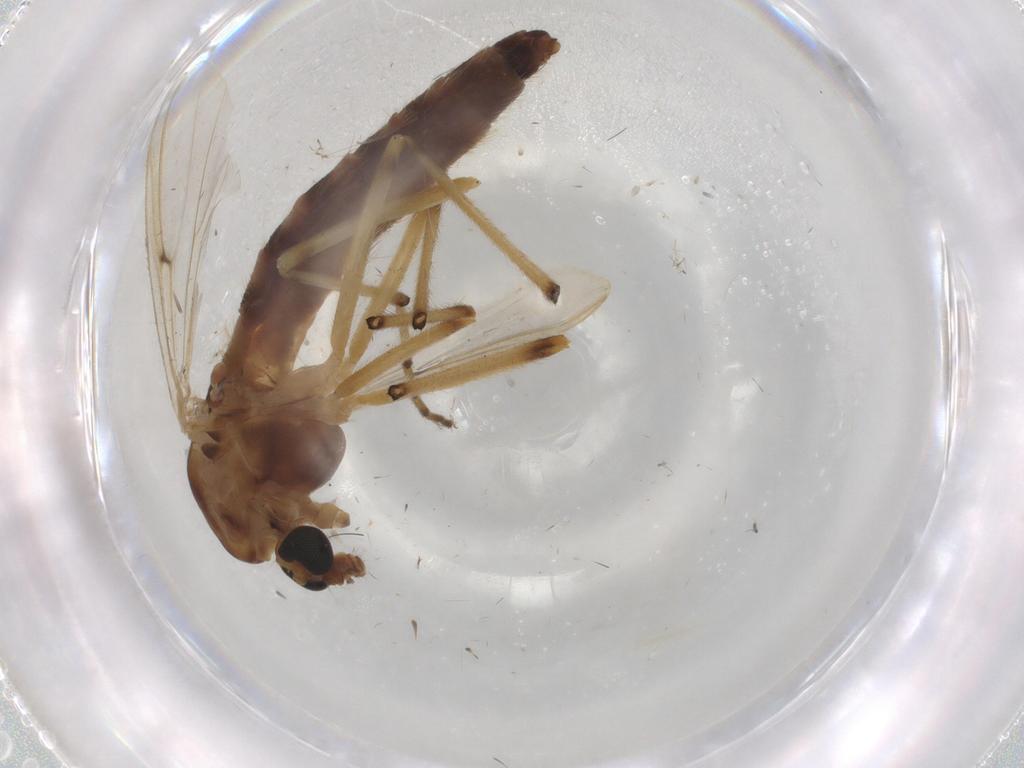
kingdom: Animalia
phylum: Arthropoda
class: Insecta
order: Diptera
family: Chironomidae
